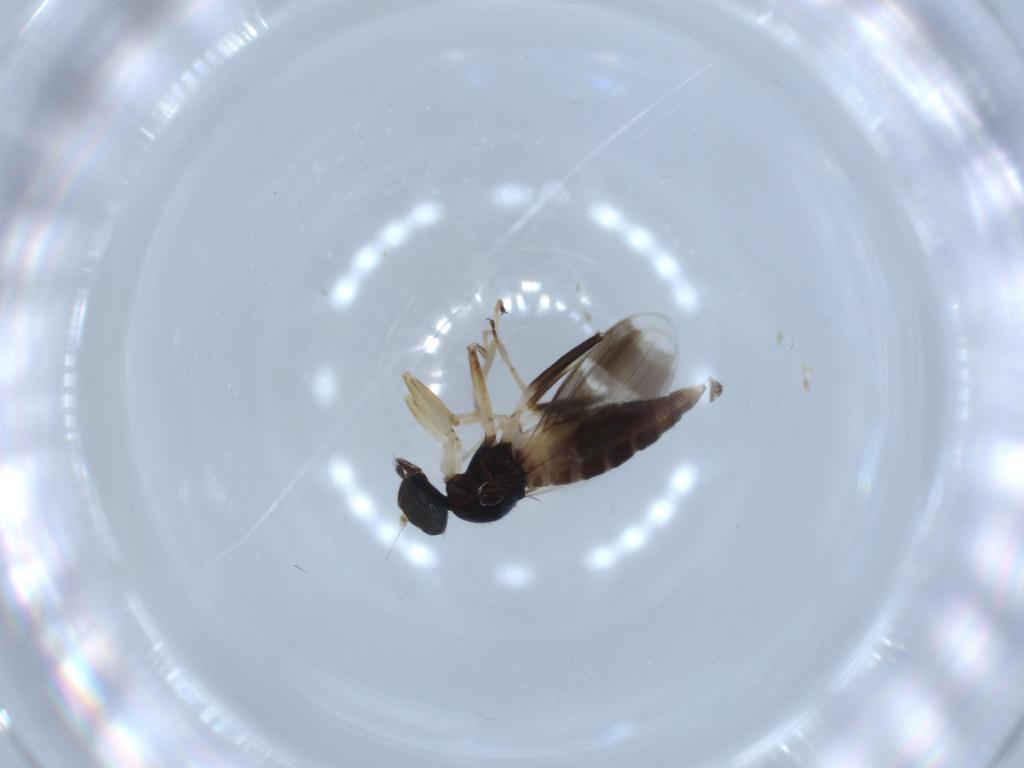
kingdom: Animalia
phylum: Arthropoda
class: Insecta
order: Diptera
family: Hybotidae
